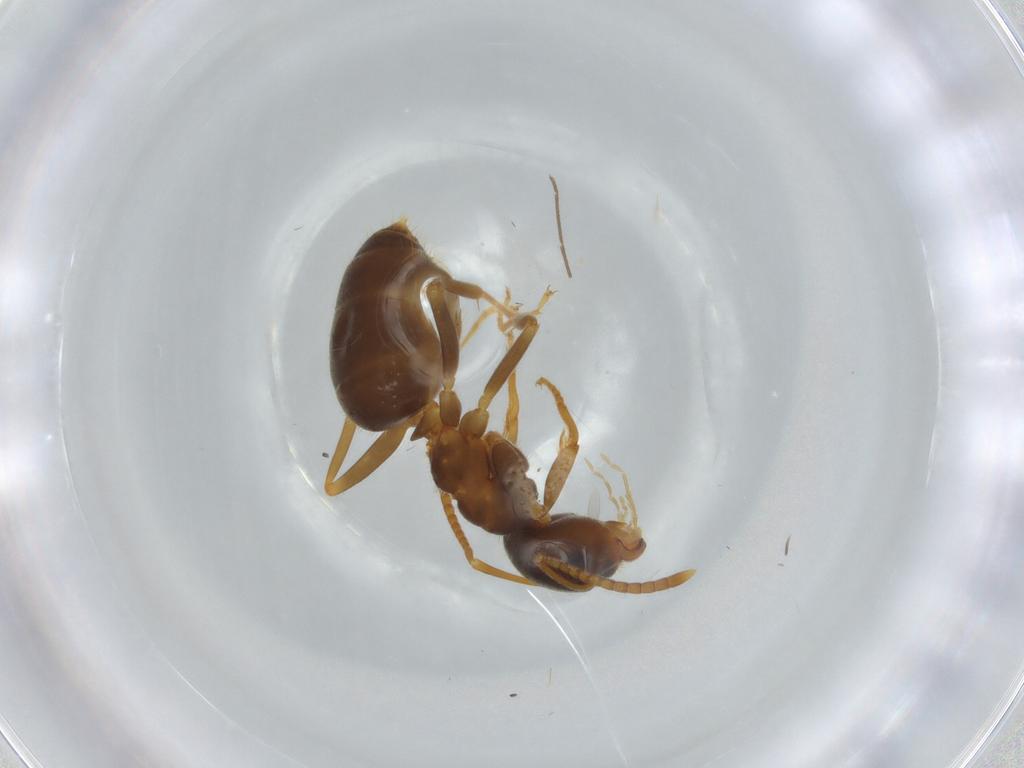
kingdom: Animalia
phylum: Arthropoda
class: Insecta
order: Hymenoptera
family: Formicidae
